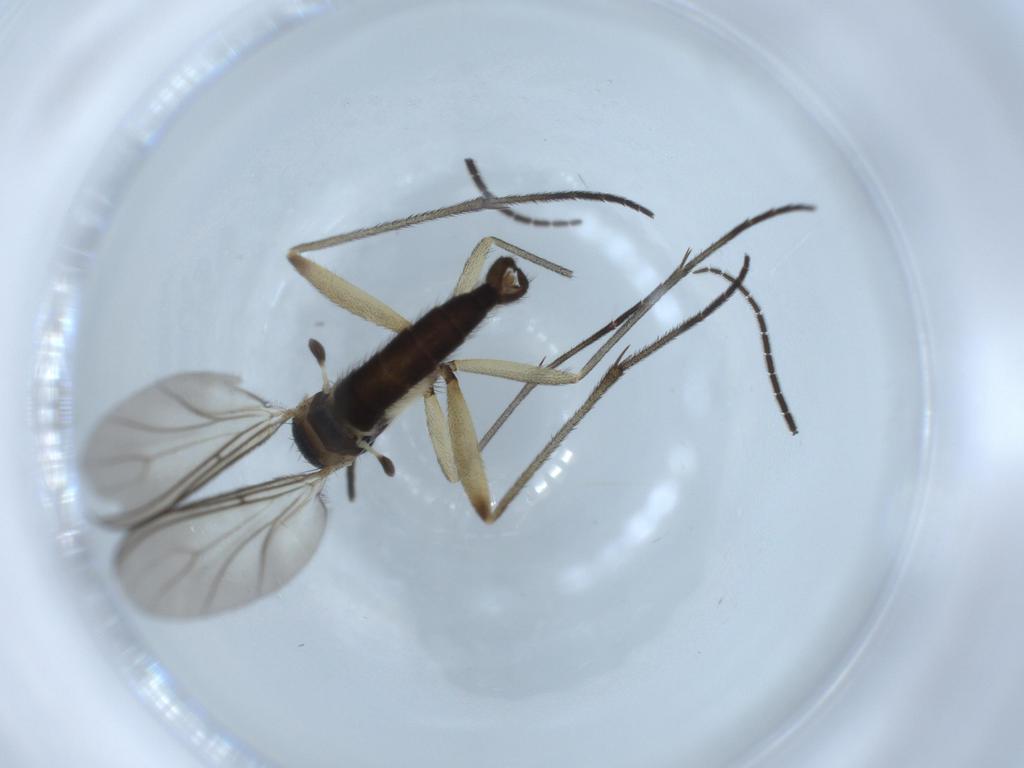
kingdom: Animalia
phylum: Arthropoda
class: Insecta
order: Diptera
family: Sciaridae
